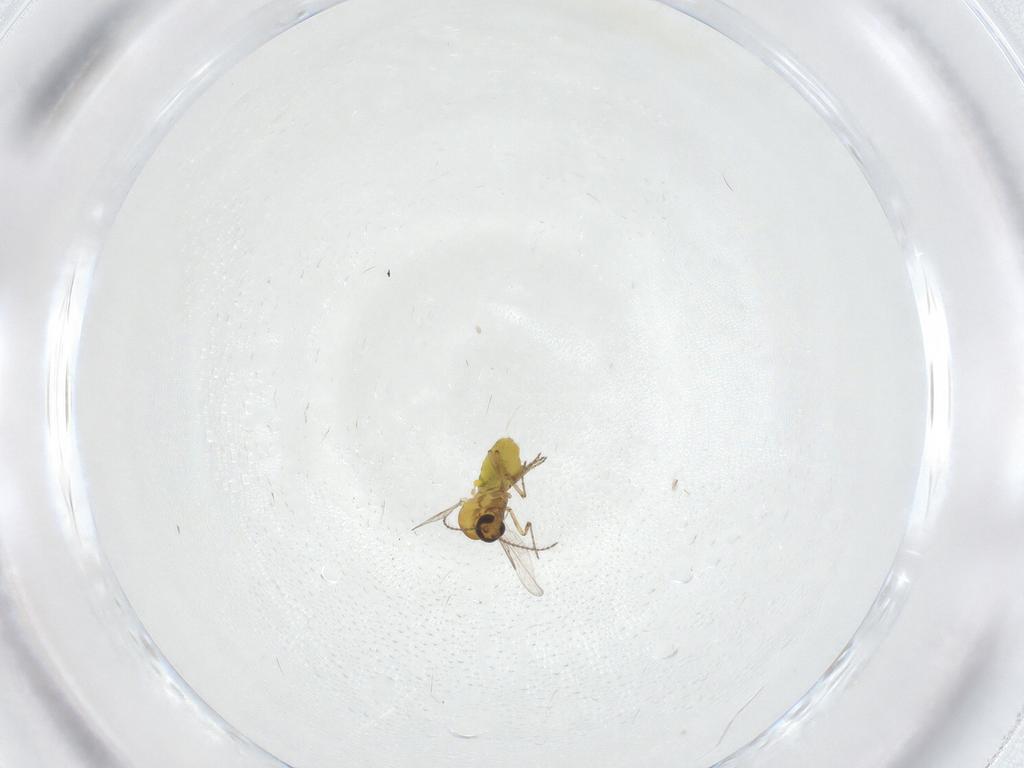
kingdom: Animalia
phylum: Arthropoda
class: Insecta
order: Diptera
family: Ceratopogonidae
